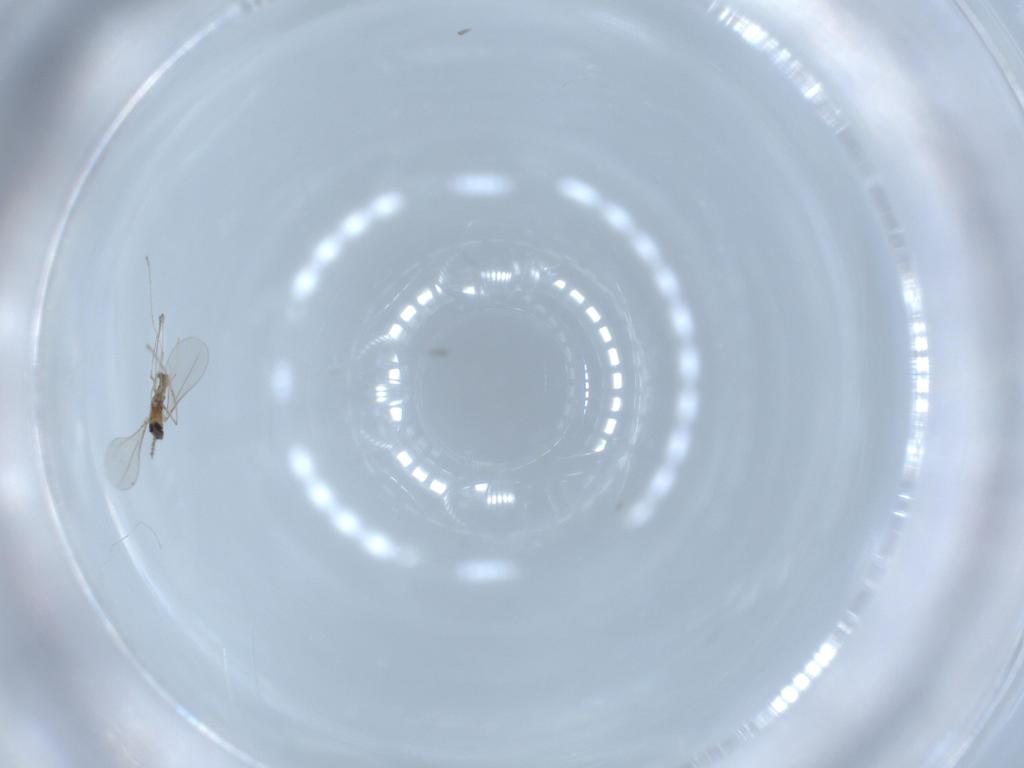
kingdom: Animalia
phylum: Arthropoda
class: Insecta
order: Diptera
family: Cecidomyiidae
